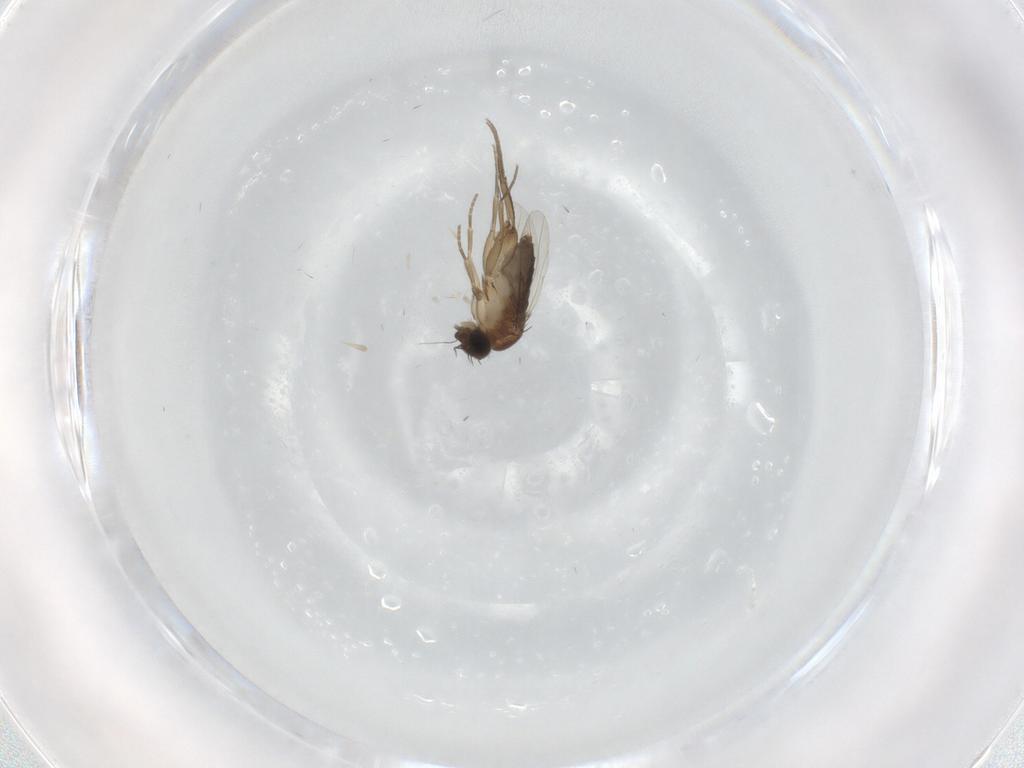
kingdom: Animalia
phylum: Arthropoda
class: Insecta
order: Diptera
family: Phoridae
